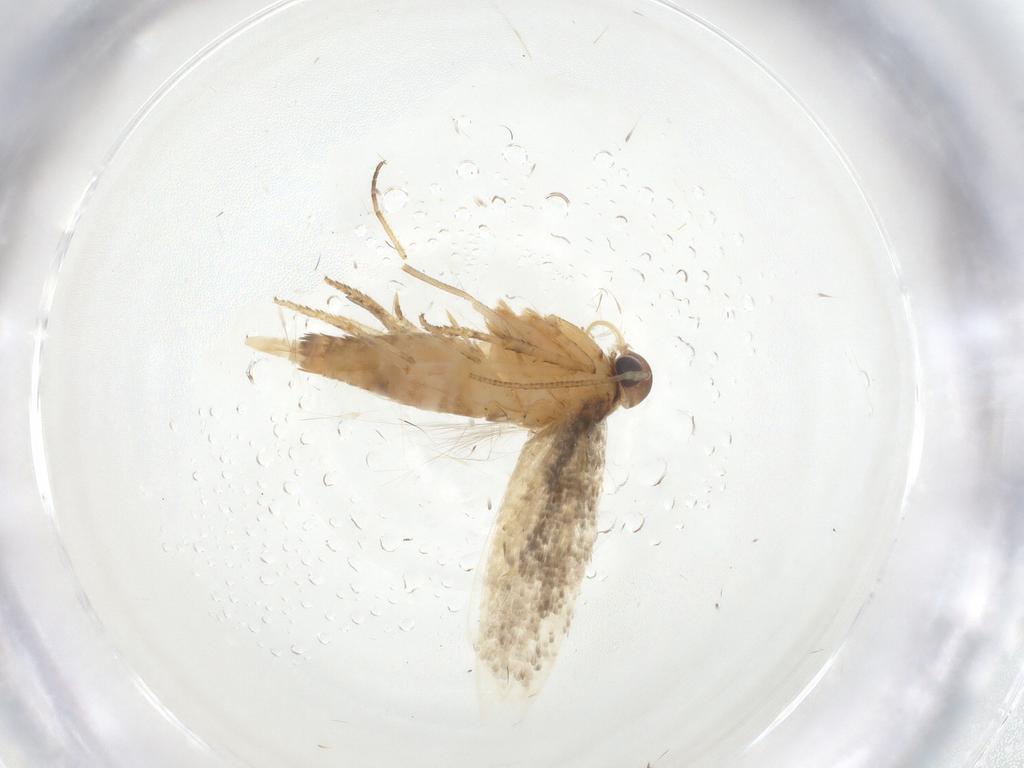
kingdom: Animalia
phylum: Arthropoda
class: Insecta
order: Lepidoptera
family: Gelechiidae
